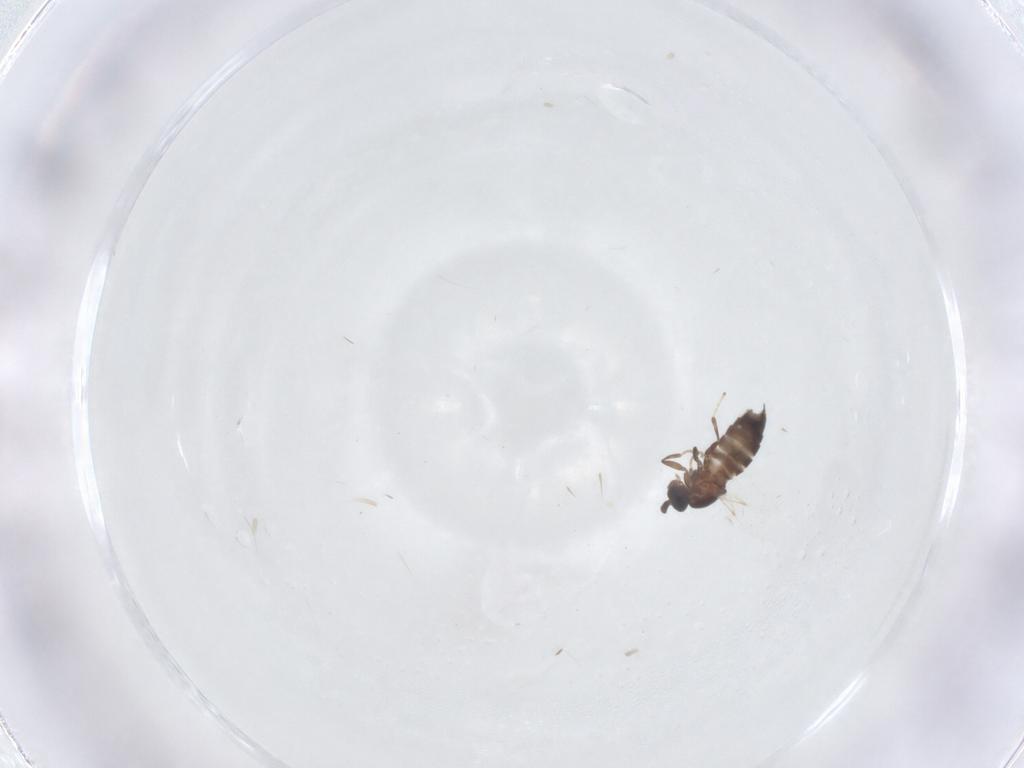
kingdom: Animalia
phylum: Arthropoda
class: Insecta
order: Diptera
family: Scatopsidae
